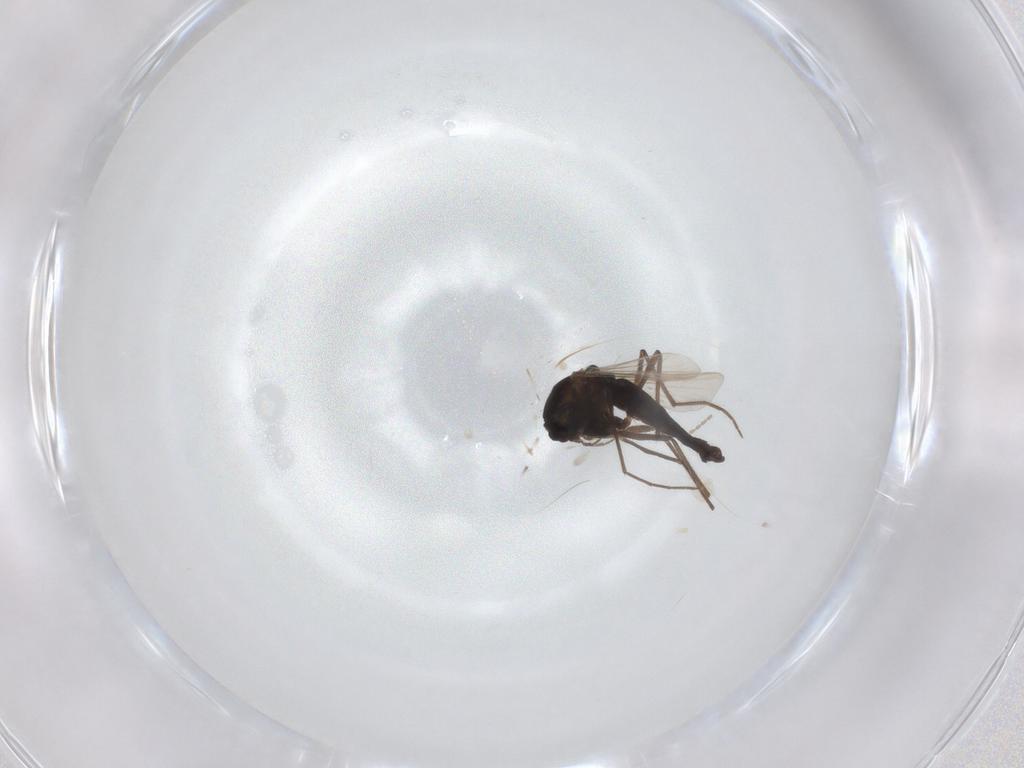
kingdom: Animalia
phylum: Arthropoda
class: Insecta
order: Diptera
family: Chironomidae
